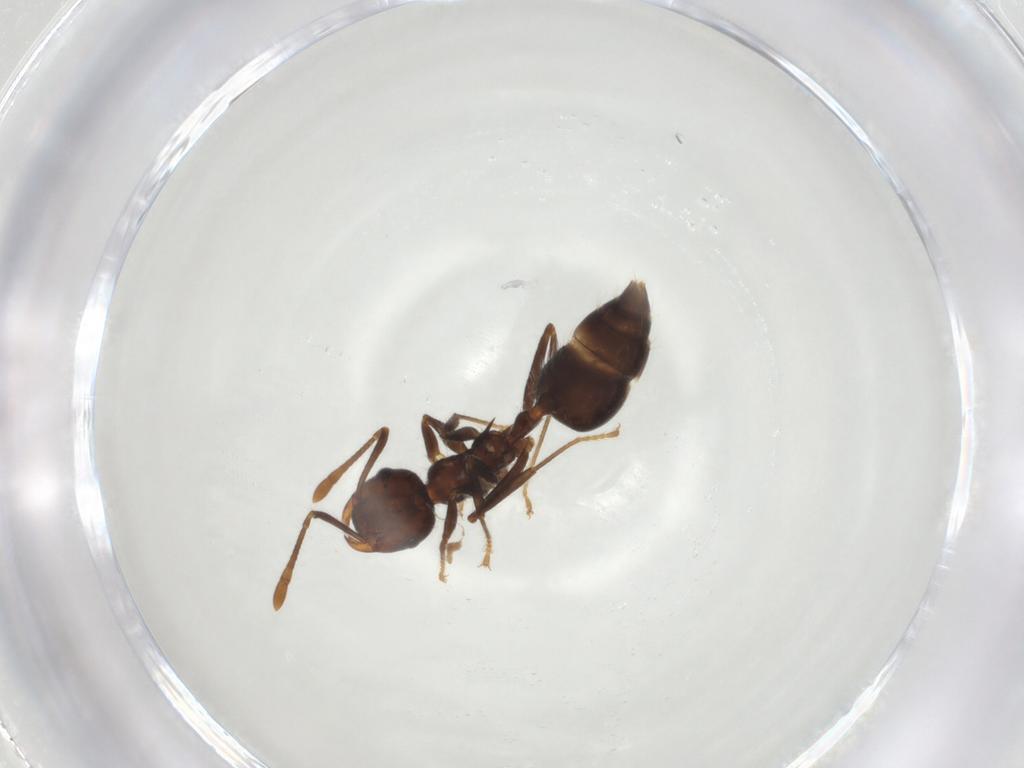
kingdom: Animalia
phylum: Arthropoda
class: Insecta
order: Hymenoptera
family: Formicidae
